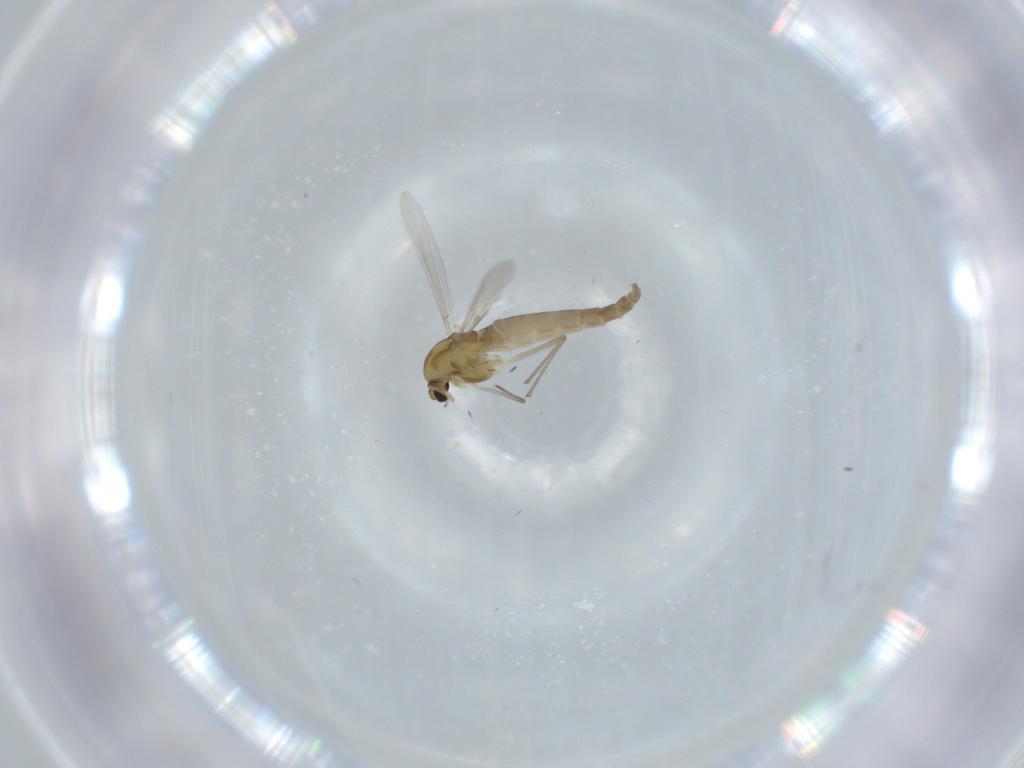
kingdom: Animalia
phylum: Arthropoda
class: Insecta
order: Diptera
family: Chironomidae
